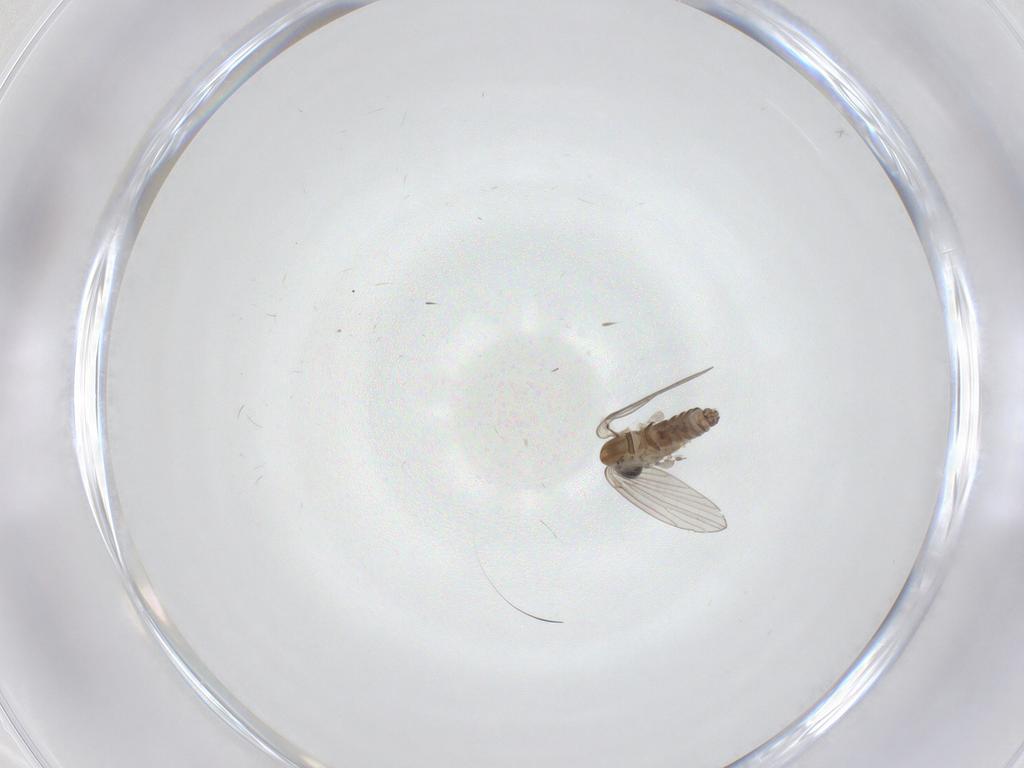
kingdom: Animalia
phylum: Arthropoda
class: Insecta
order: Diptera
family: Psychodidae
